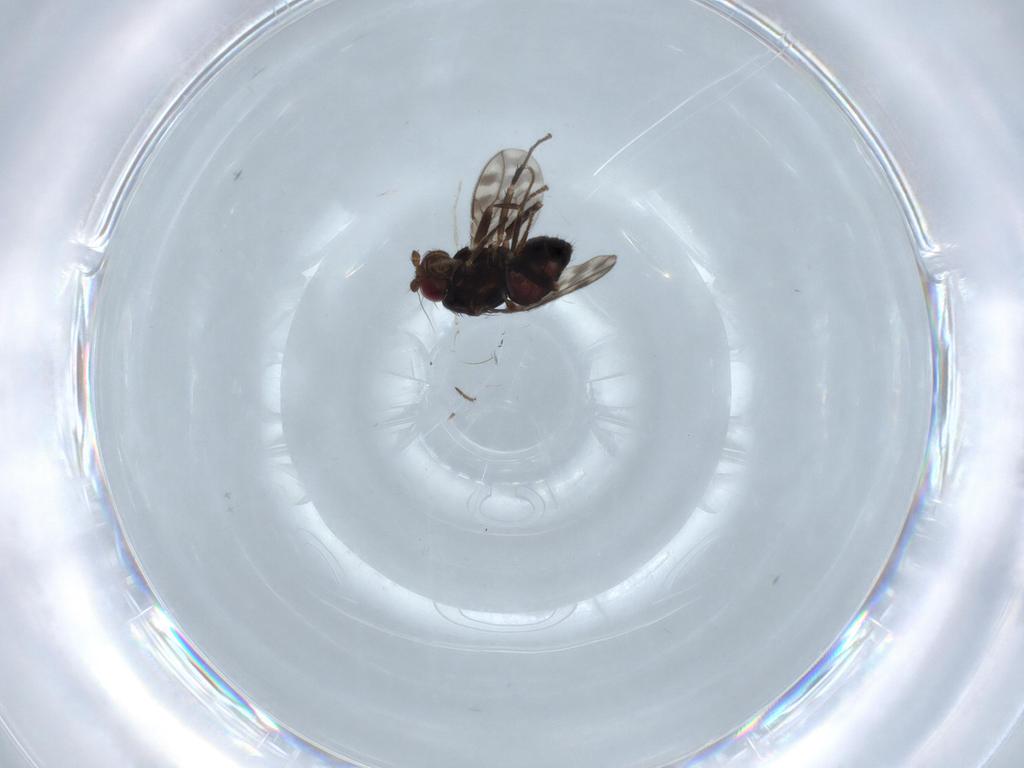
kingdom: Animalia
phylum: Arthropoda
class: Insecta
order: Diptera
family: Sphaeroceridae
